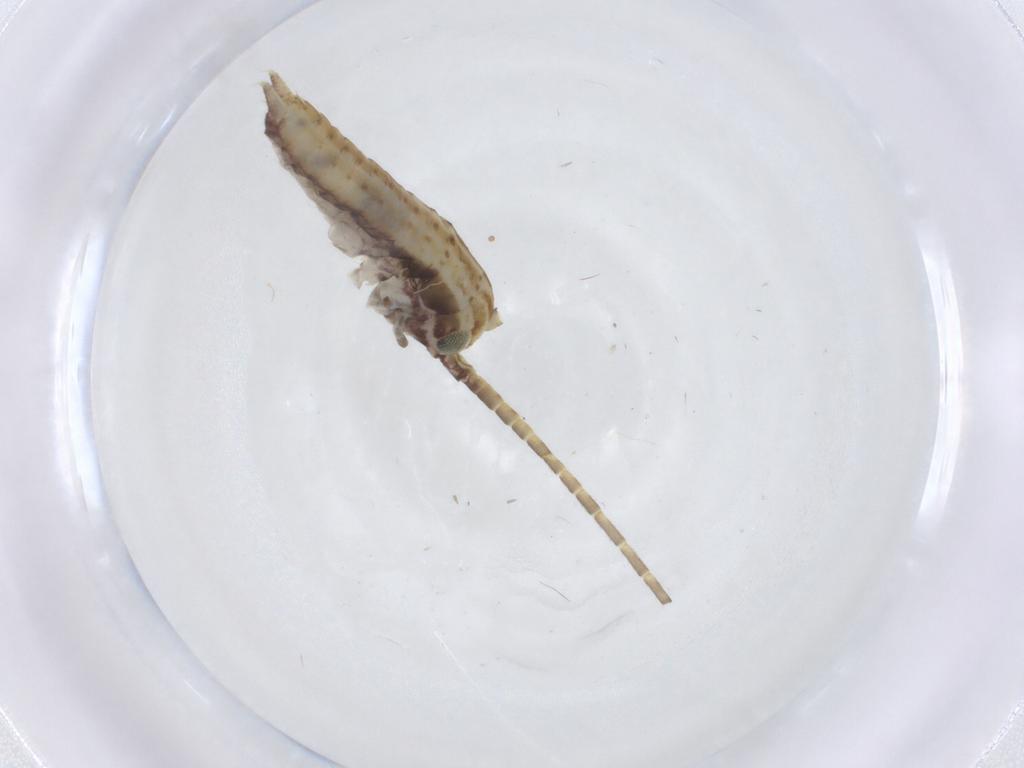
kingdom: Animalia
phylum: Arthropoda
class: Insecta
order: Orthoptera
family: Gryllidae
